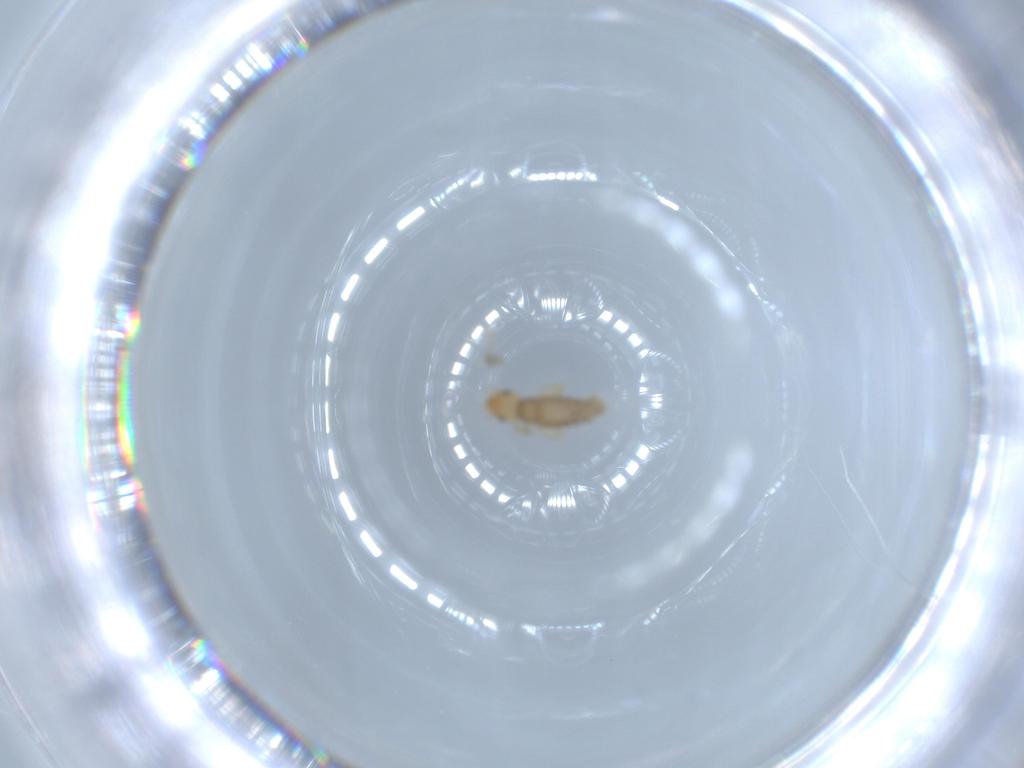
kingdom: Animalia
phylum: Arthropoda
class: Insecta
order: Psocodea
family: Liposcelididae
